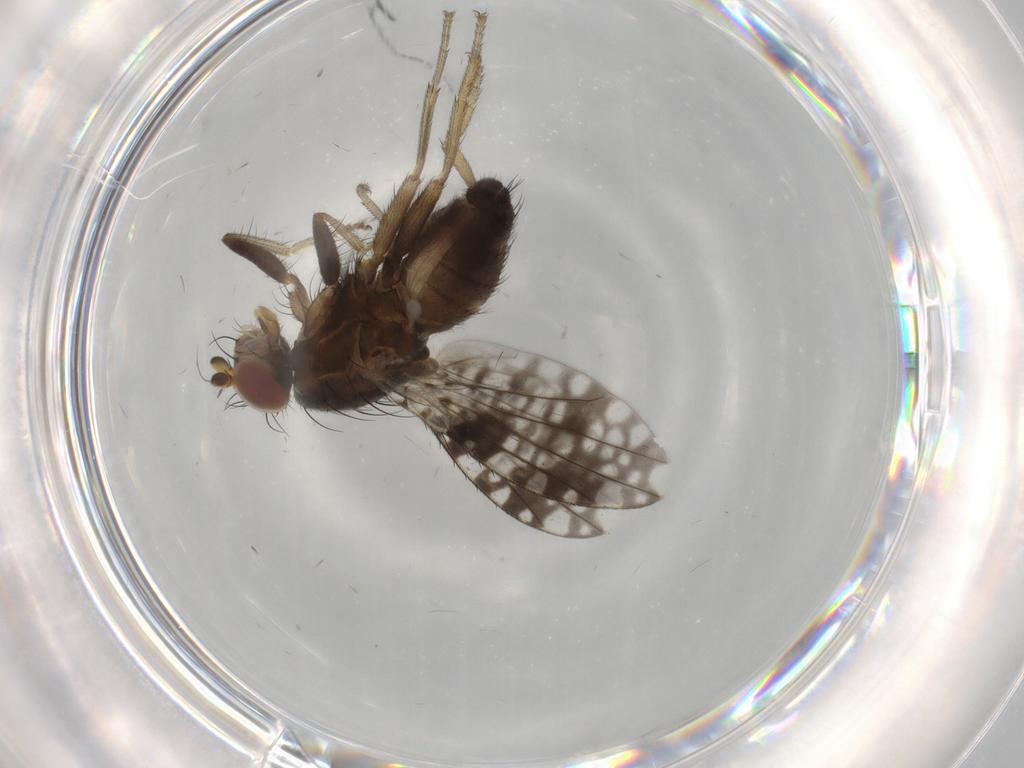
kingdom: Animalia
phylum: Arthropoda
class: Insecta
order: Diptera
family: Tephritidae
